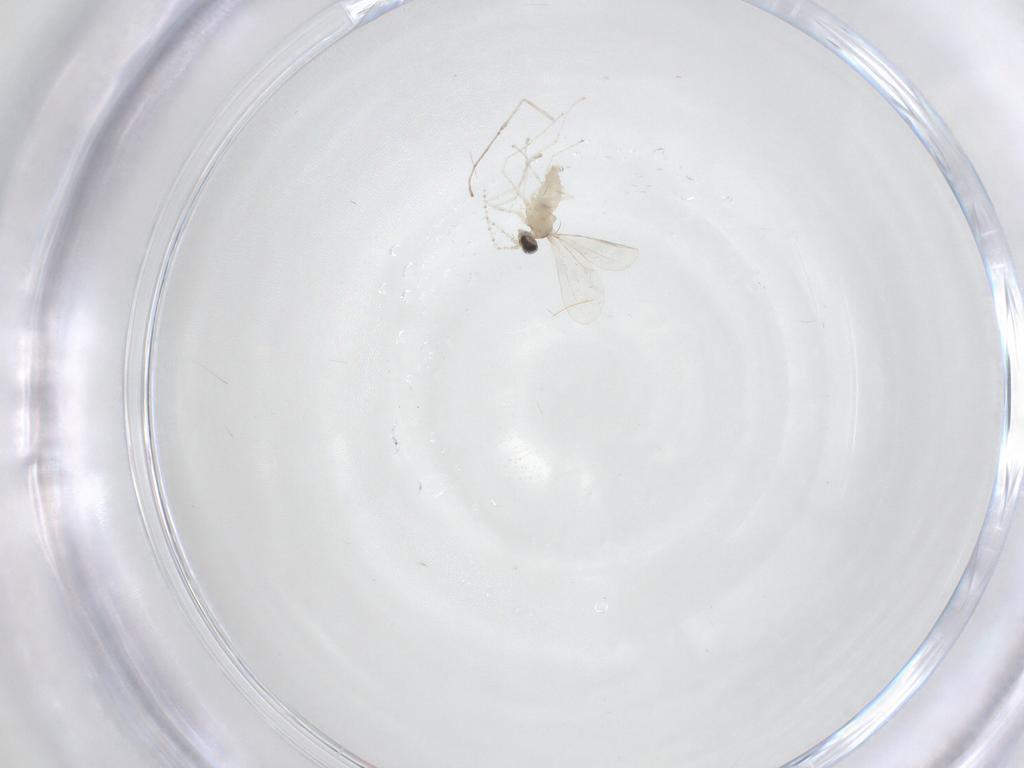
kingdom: Animalia
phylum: Arthropoda
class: Insecta
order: Diptera
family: Cecidomyiidae
